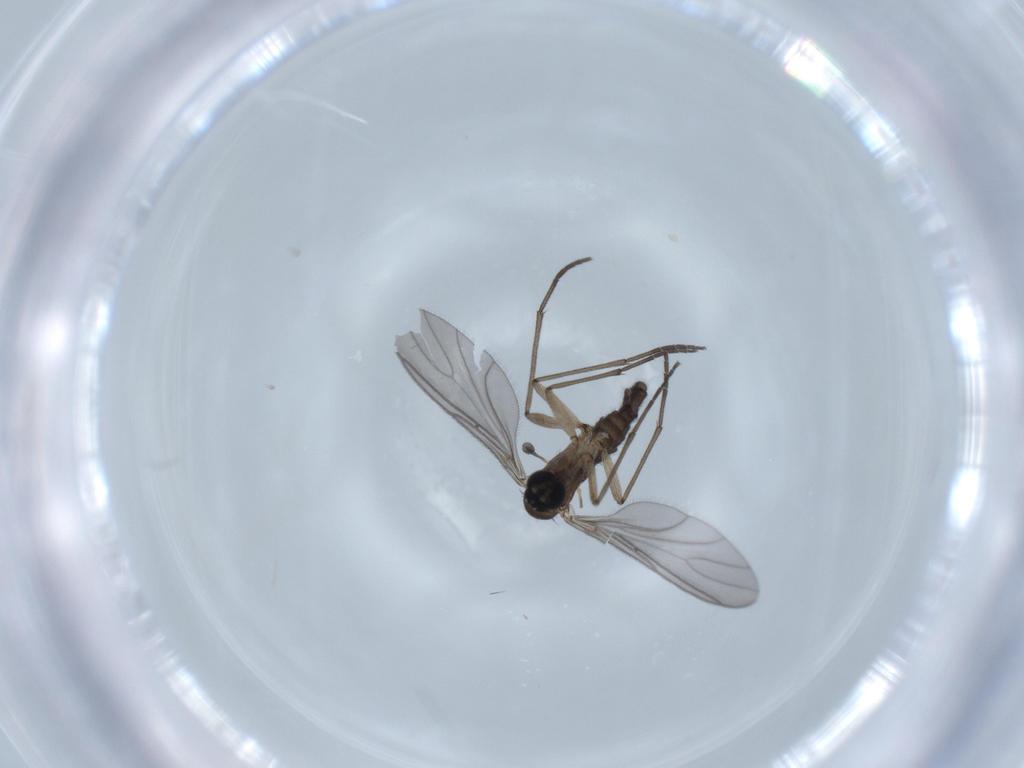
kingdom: Animalia
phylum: Arthropoda
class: Insecta
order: Diptera
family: Sciaridae
